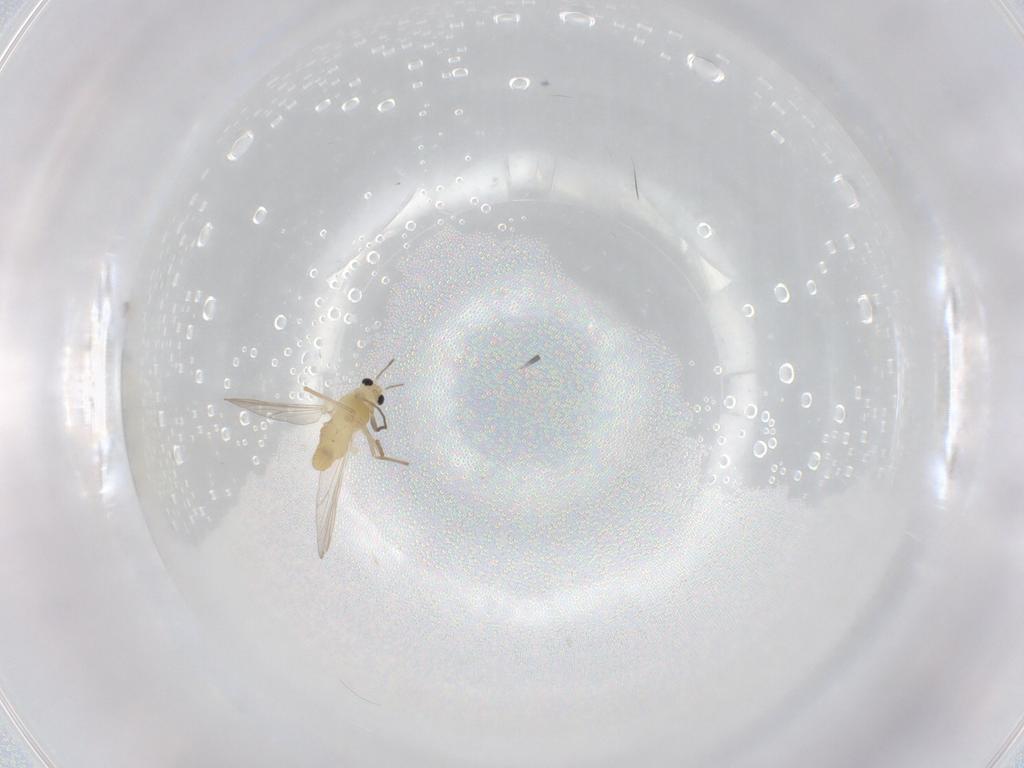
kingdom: Animalia
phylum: Arthropoda
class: Insecta
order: Diptera
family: Chironomidae
